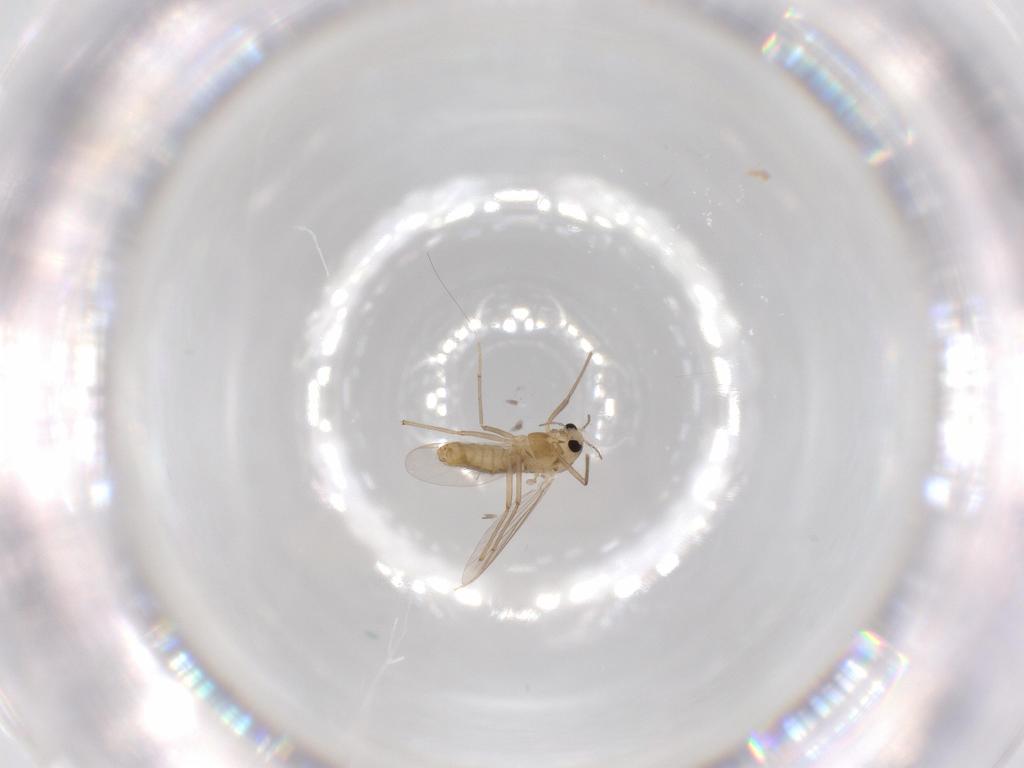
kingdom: Animalia
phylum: Arthropoda
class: Insecta
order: Diptera
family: Chironomidae
